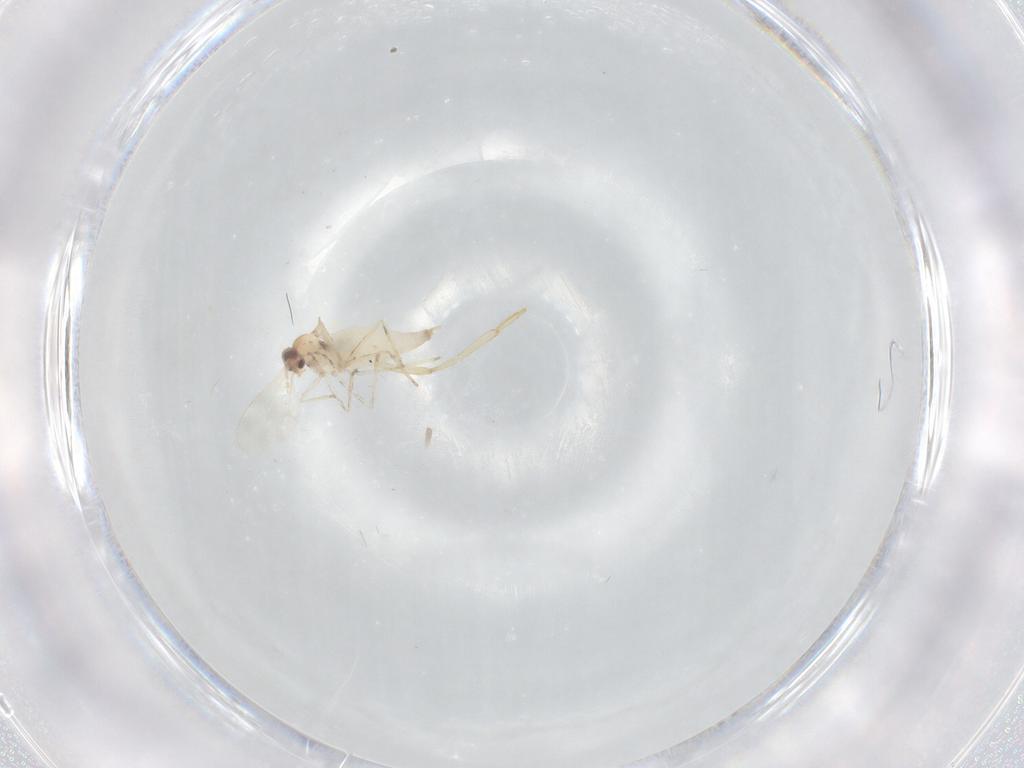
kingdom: Animalia
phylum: Arthropoda
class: Insecta
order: Diptera
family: Cecidomyiidae
